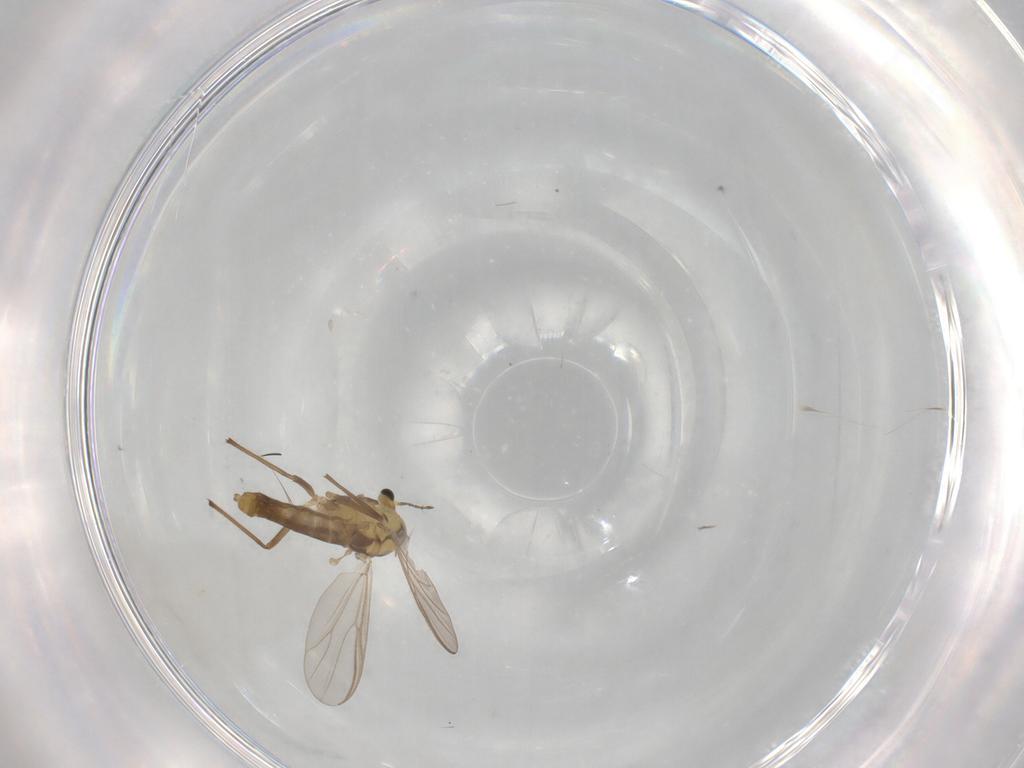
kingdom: Animalia
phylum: Arthropoda
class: Insecta
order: Diptera
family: Chironomidae
